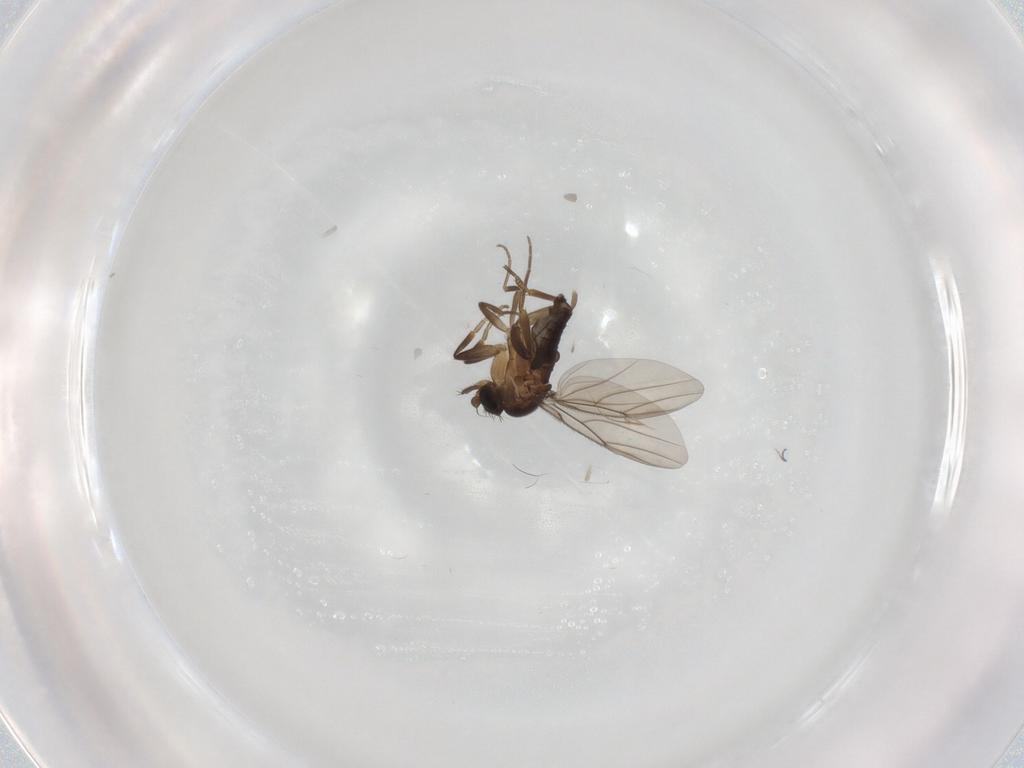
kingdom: Animalia
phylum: Arthropoda
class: Insecta
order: Diptera
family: Phoridae
